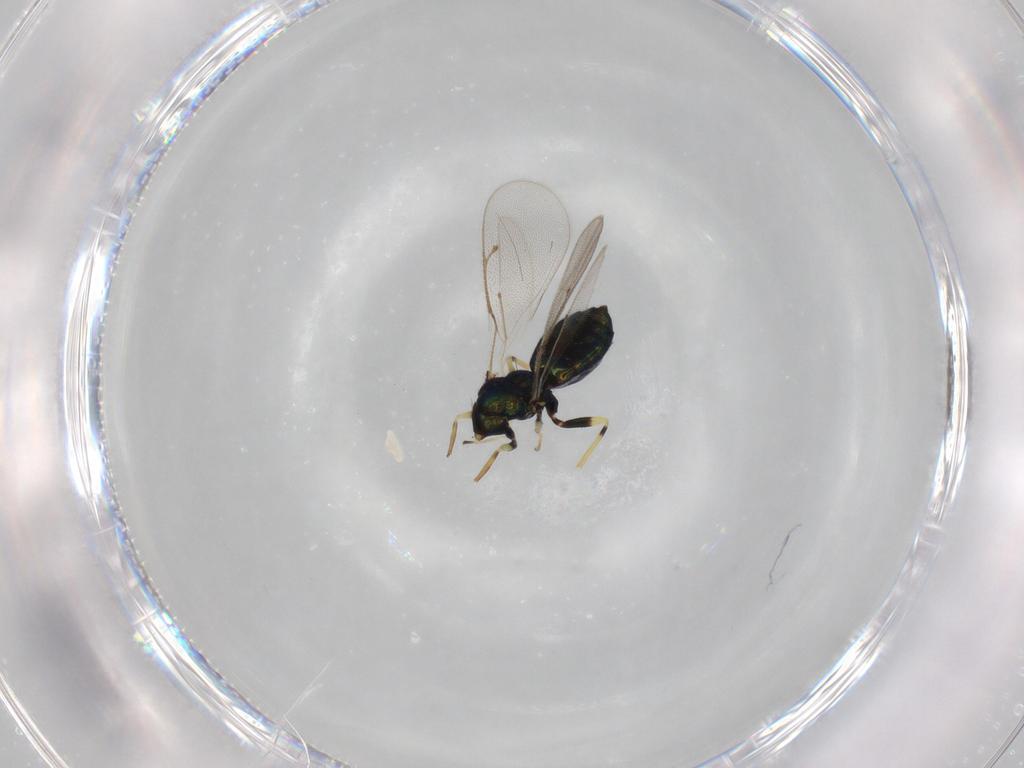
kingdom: Animalia
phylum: Arthropoda
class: Insecta
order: Hymenoptera
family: Eulophidae
